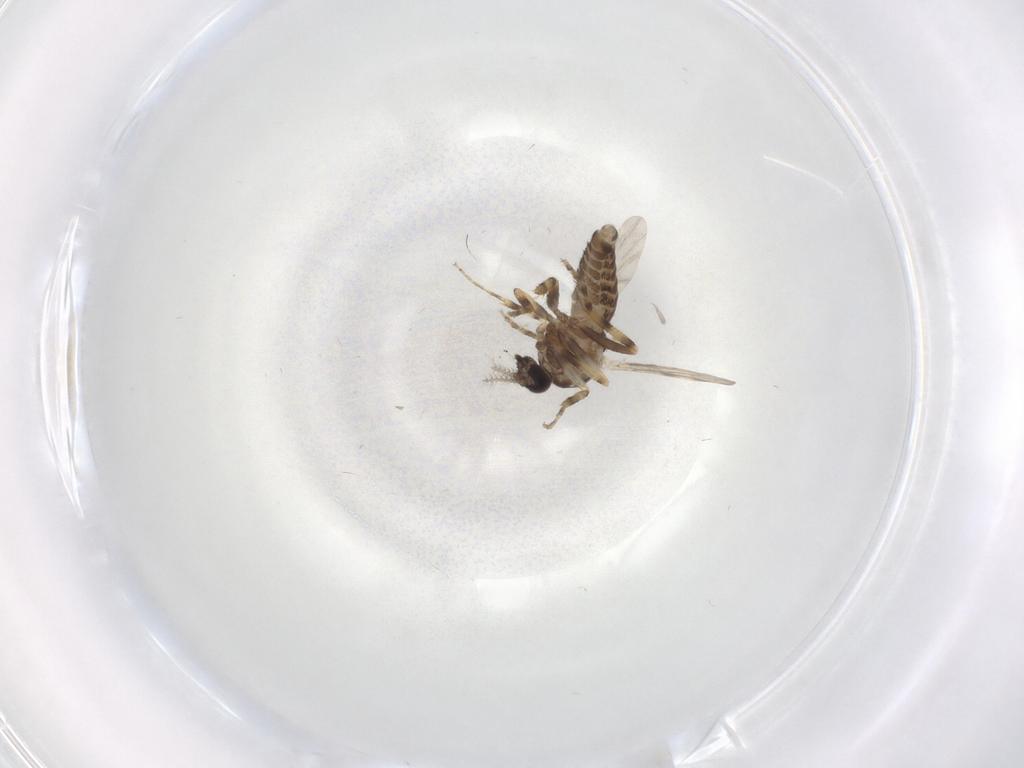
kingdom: Animalia
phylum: Arthropoda
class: Insecta
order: Diptera
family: Ceratopogonidae
